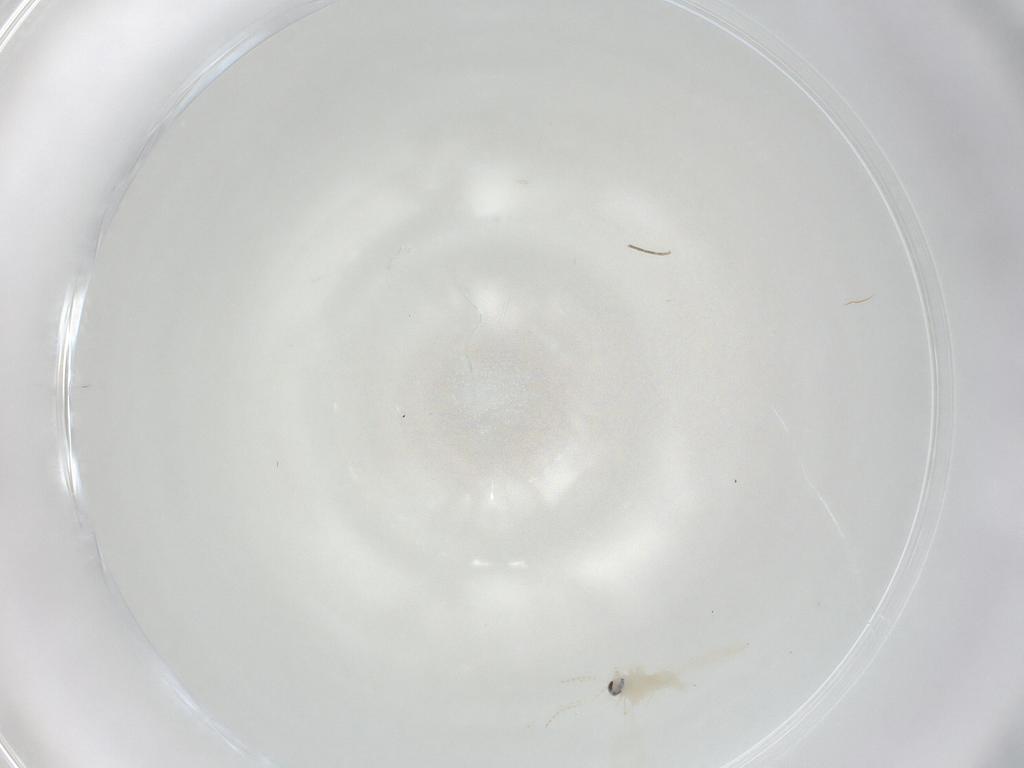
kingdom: Animalia
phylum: Arthropoda
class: Insecta
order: Diptera
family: Cecidomyiidae
